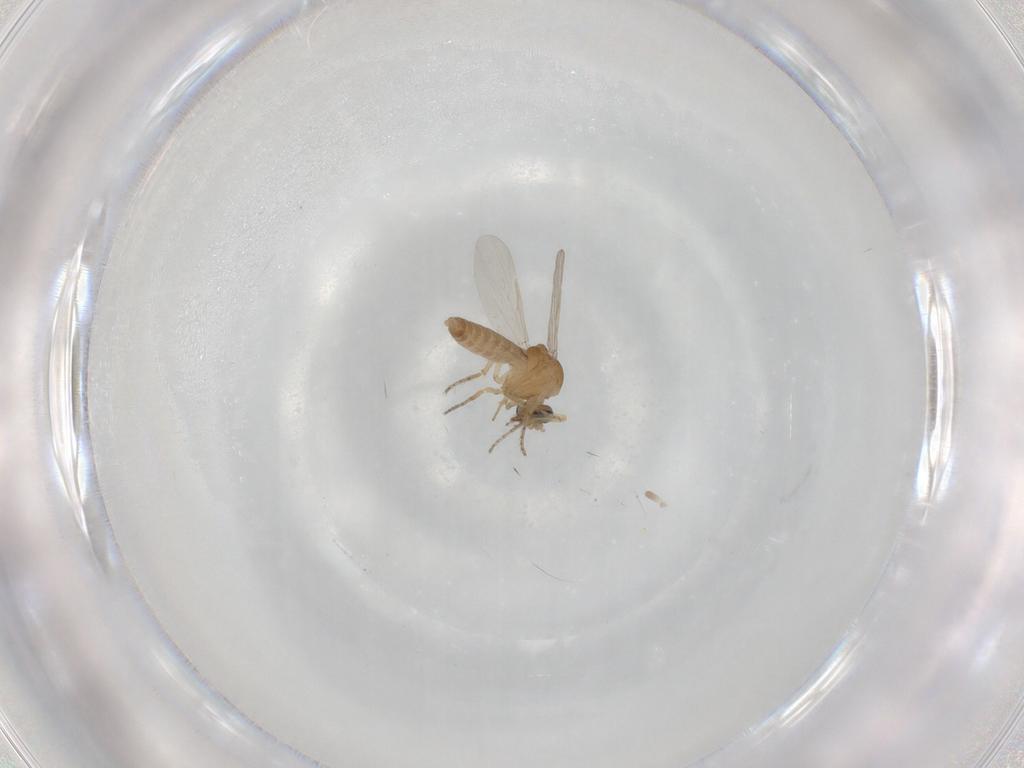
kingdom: Animalia
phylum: Arthropoda
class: Insecta
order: Diptera
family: Ceratopogonidae
